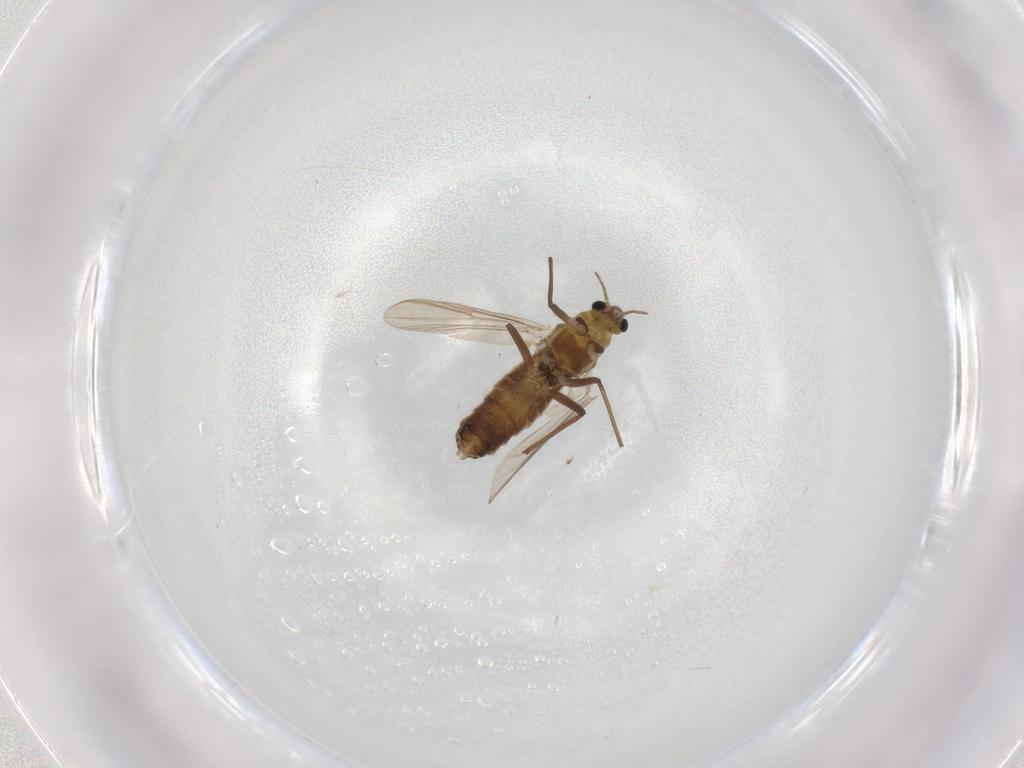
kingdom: Animalia
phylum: Arthropoda
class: Insecta
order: Diptera
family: Chironomidae
